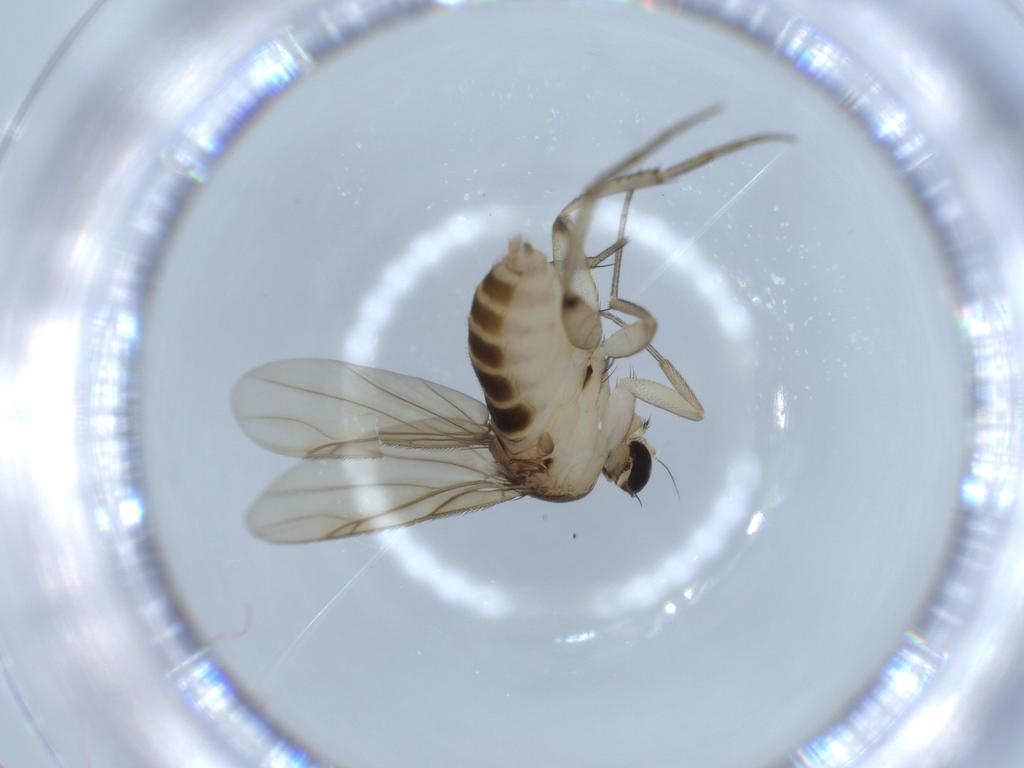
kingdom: Animalia
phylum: Arthropoda
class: Insecta
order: Diptera
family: Phoridae
